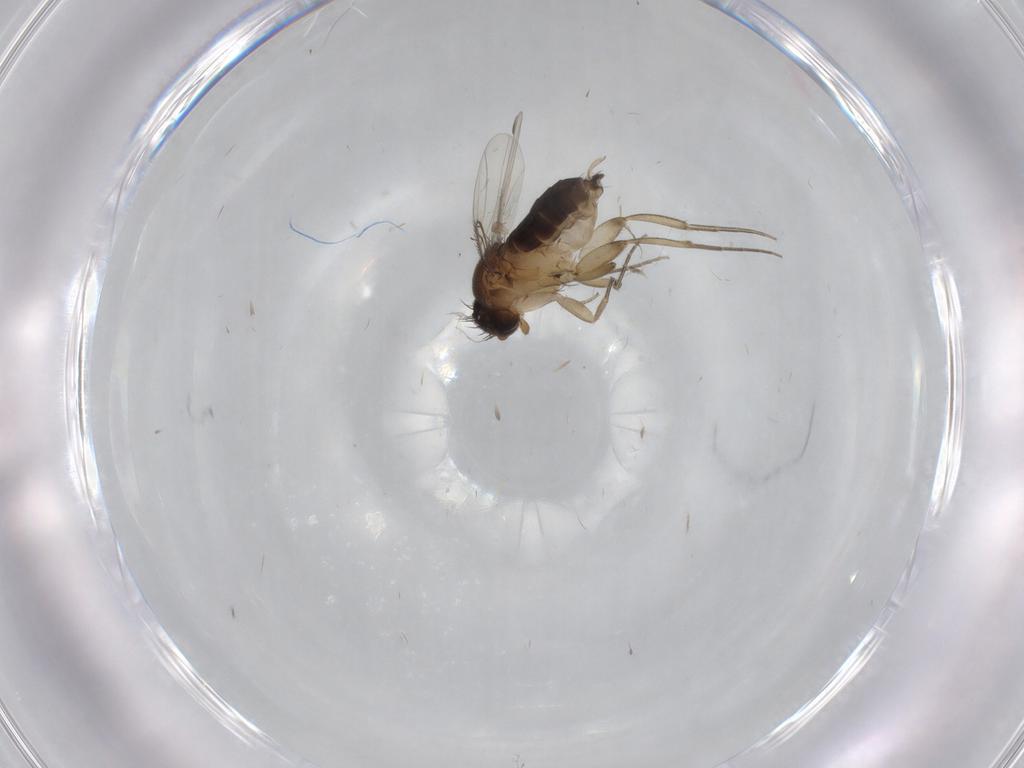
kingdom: Animalia
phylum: Arthropoda
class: Insecta
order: Diptera
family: Phoridae
